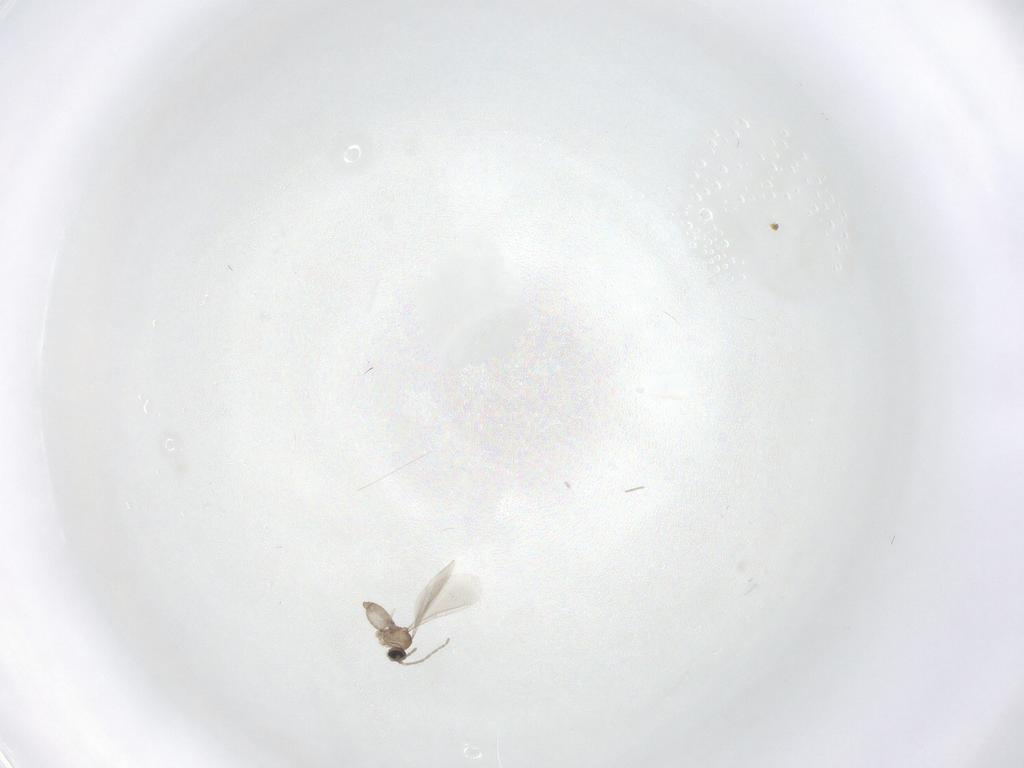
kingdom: Animalia
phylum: Arthropoda
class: Insecta
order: Diptera
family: Cecidomyiidae
